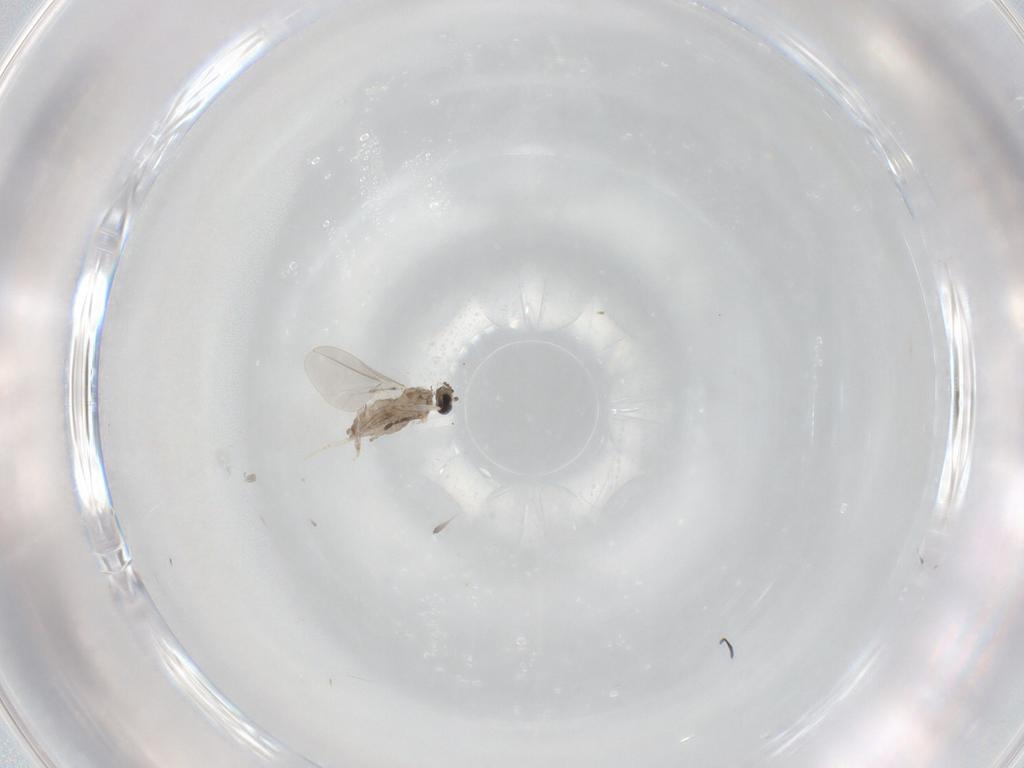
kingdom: Animalia
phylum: Arthropoda
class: Insecta
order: Diptera
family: Cecidomyiidae
